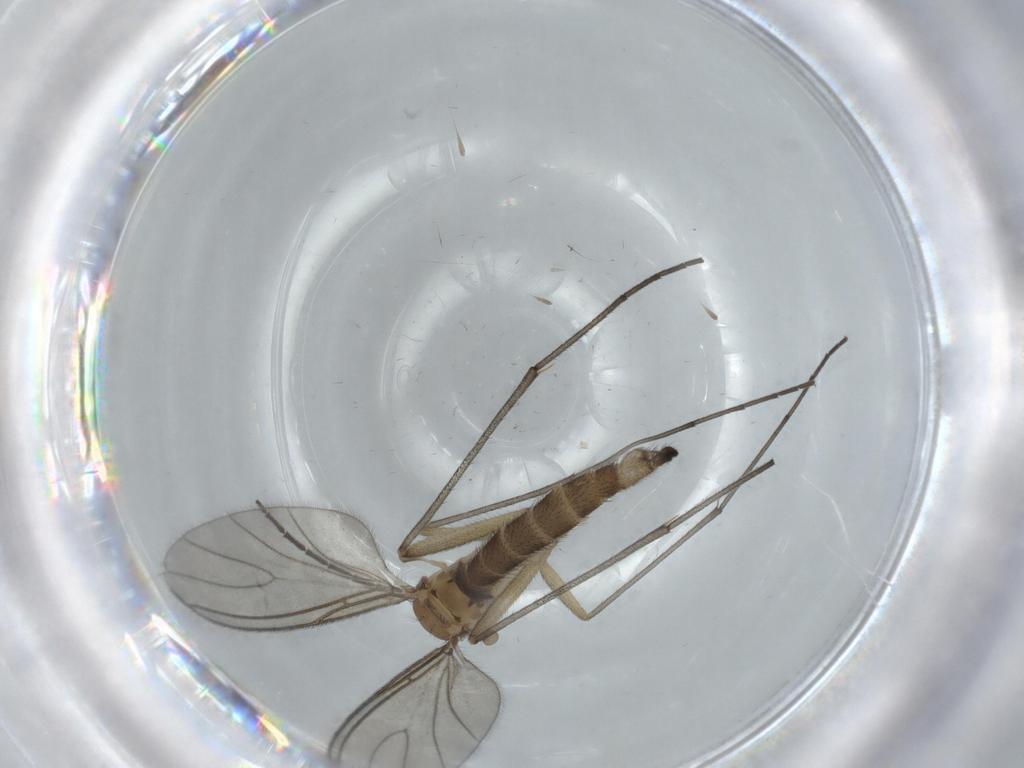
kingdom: Animalia
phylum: Arthropoda
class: Insecta
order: Diptera
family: Sciaridae
